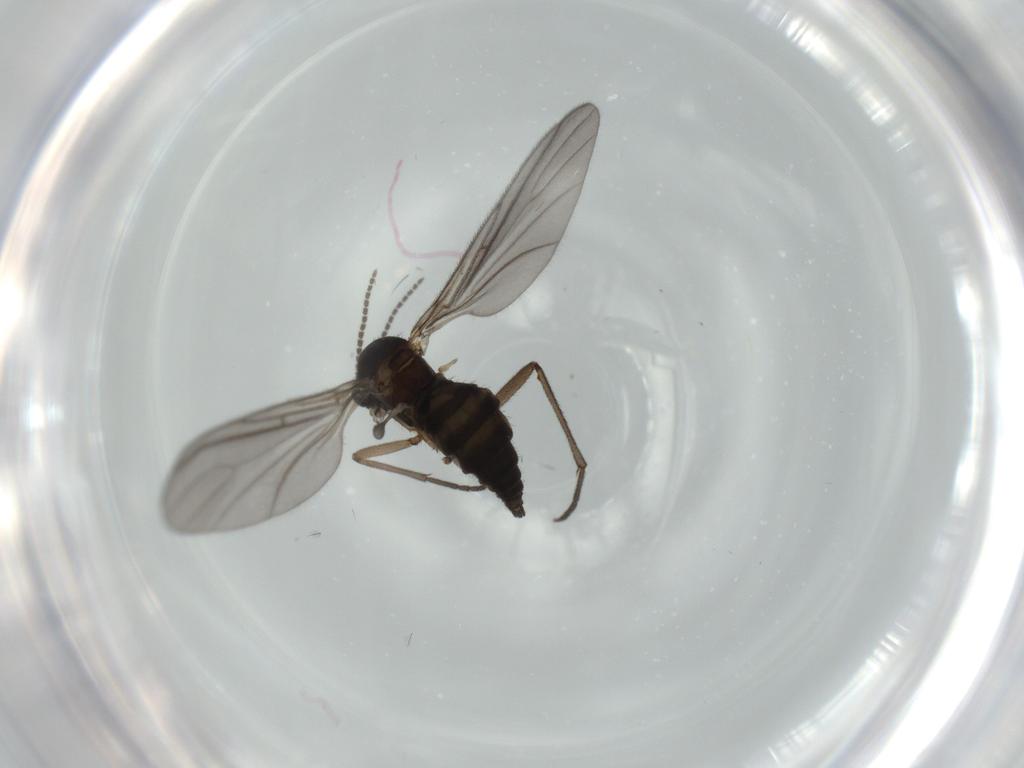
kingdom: Animalia
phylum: Arthropoda
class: Insecta
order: Diptera
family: Sciaridae
